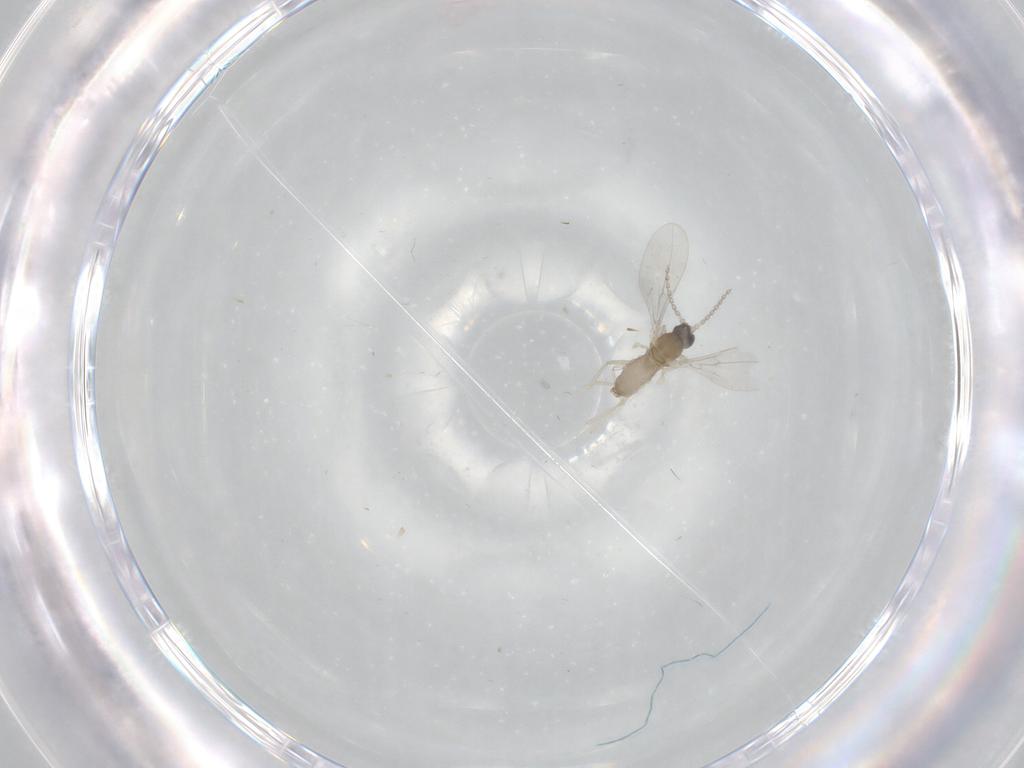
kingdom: Animalia
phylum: Arthropoda
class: Insecta
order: Diptera
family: Cecidomyiidae
